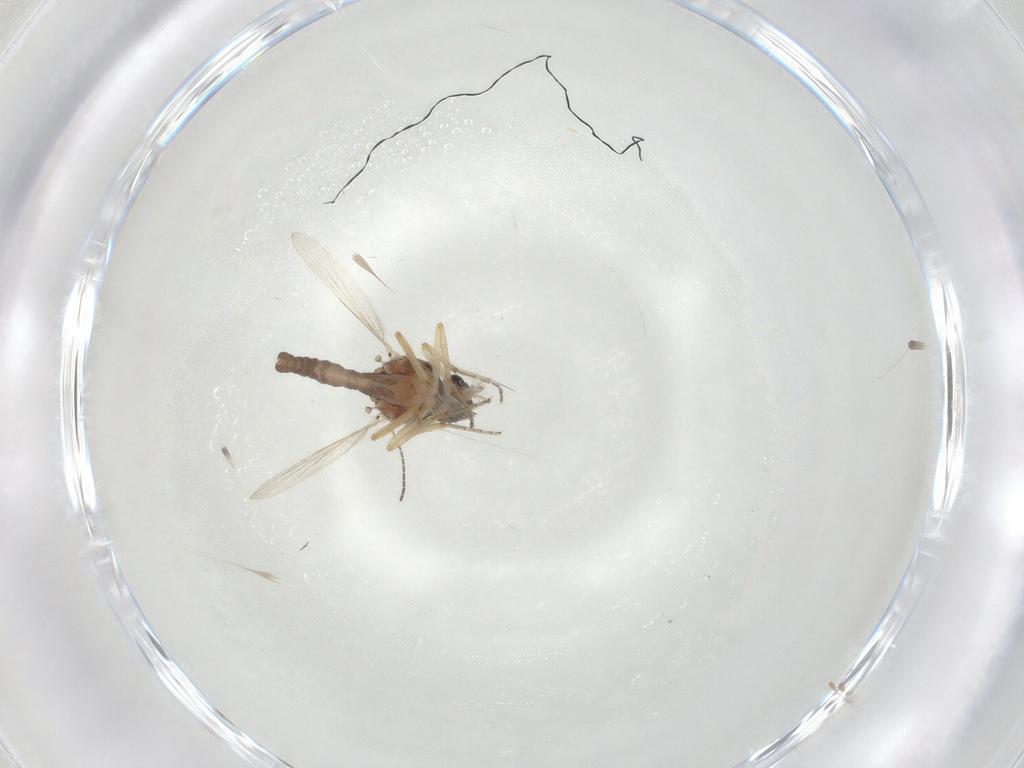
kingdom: Animalia
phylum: Arthropoda
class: Insecta
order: Diptera
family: Ceratopogonidae
